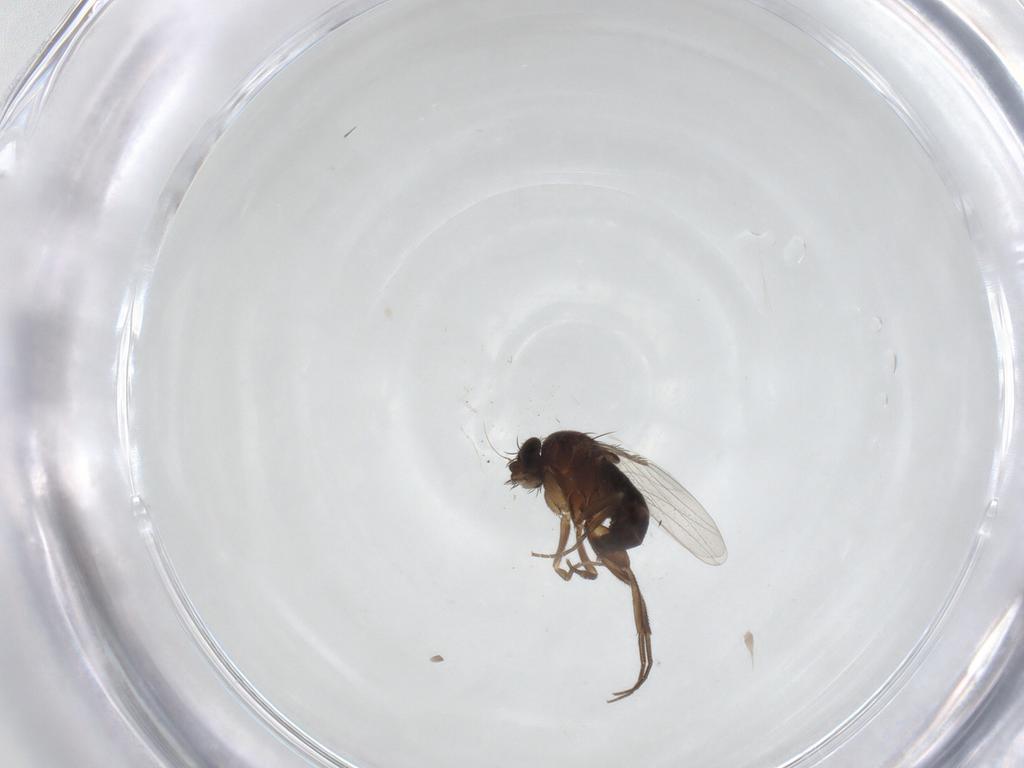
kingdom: Animalia
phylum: Arthropoda
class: Insecta
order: Diptera
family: Phoridae
